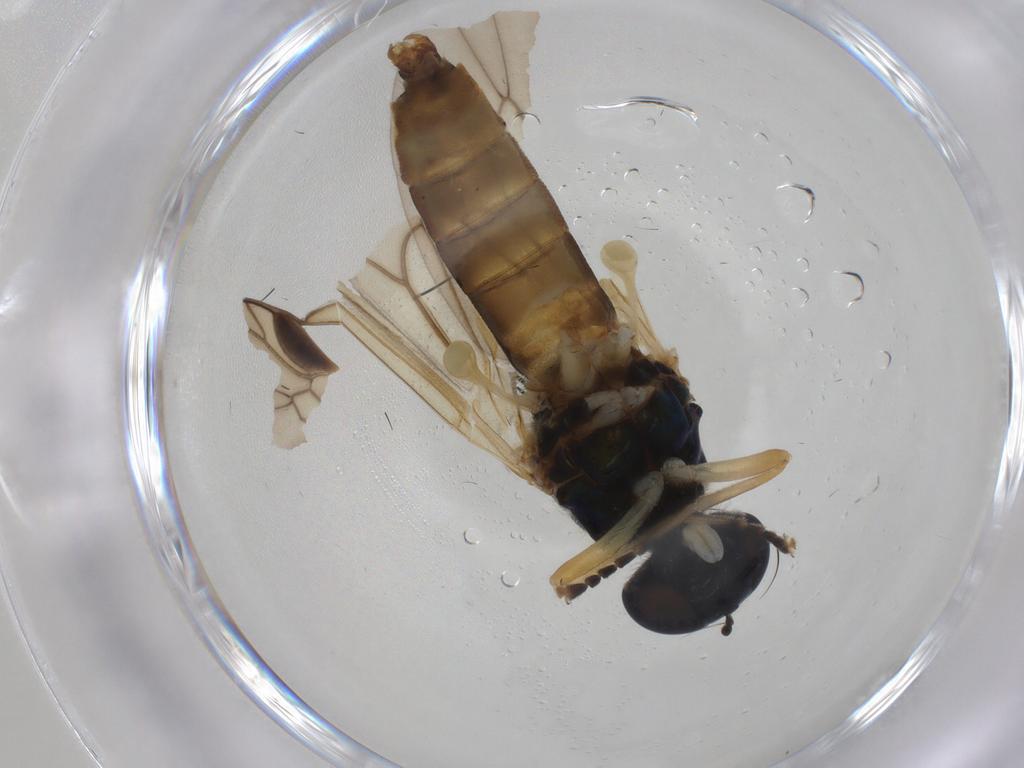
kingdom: Animalia
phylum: Arthropoda
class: Insecta
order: Diptera
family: Stratiomyidae
